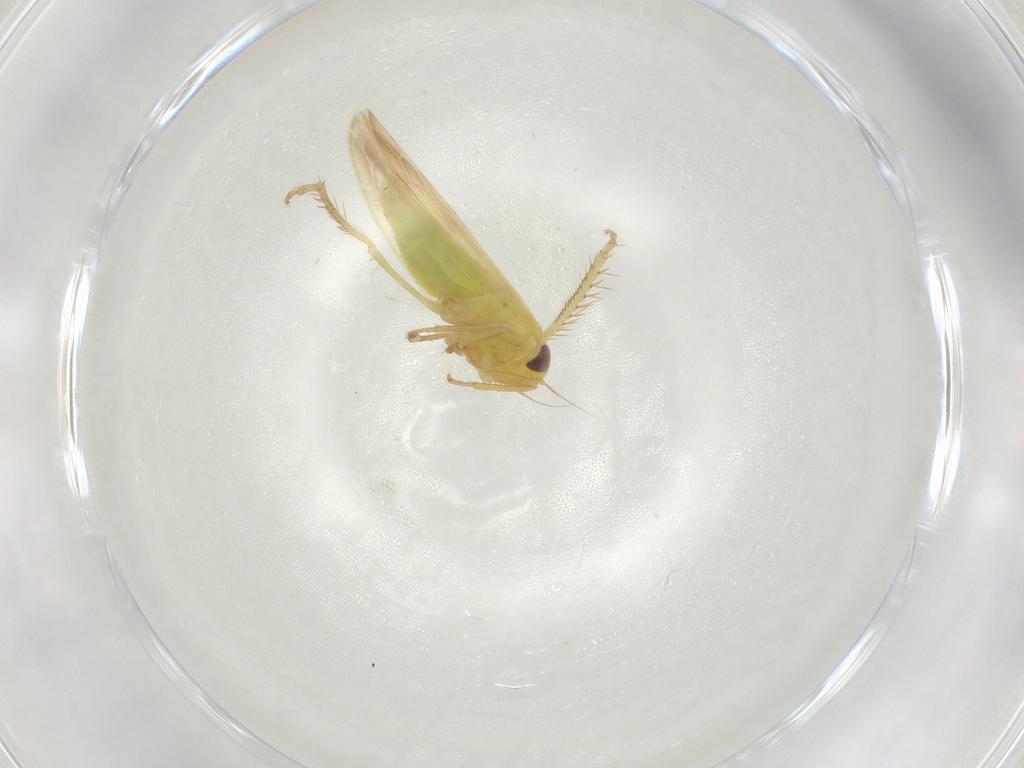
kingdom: Animalia
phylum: Arthropoda
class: Insecta
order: Hemiptera
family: Cicadellidae
